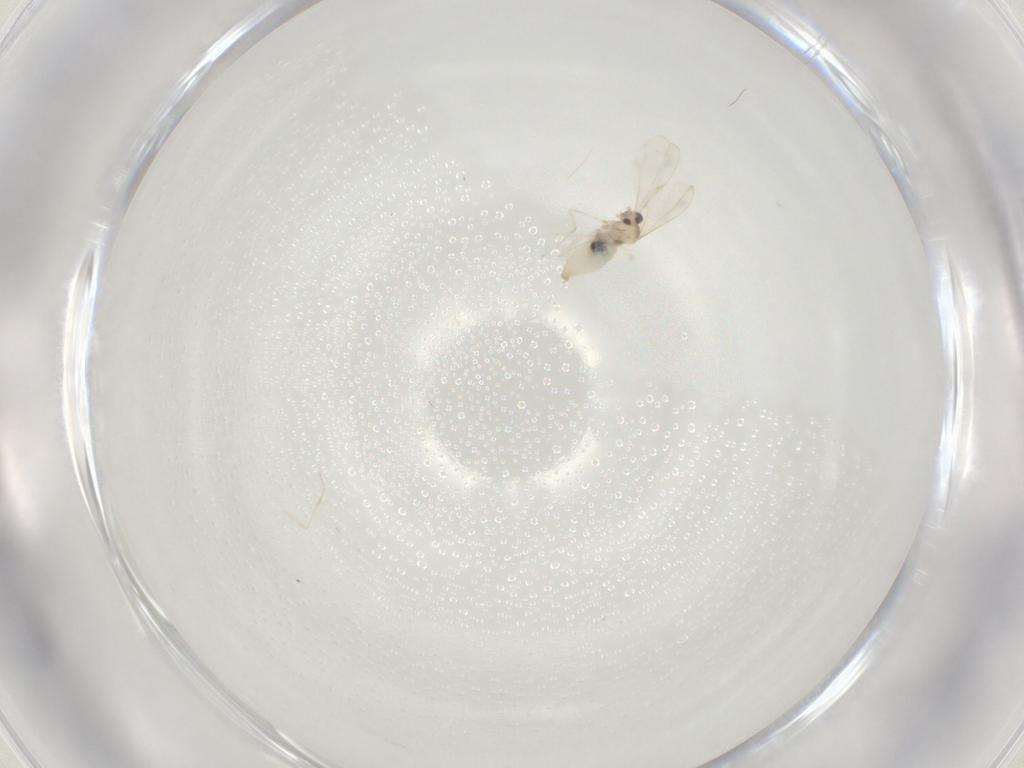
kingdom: Animalia
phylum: Arthropoda
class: Insecta
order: Diptera
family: Cecidomyiidae
